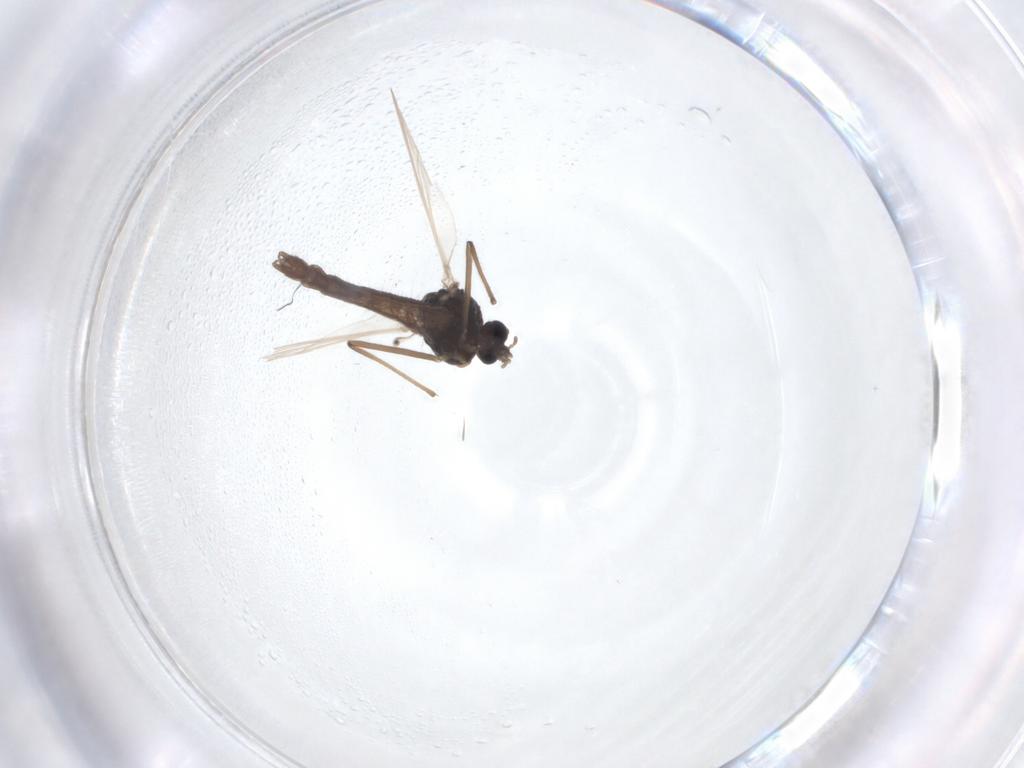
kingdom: Animalia
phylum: Arthropoda
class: Insecta
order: Diptera
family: Chironomidae
